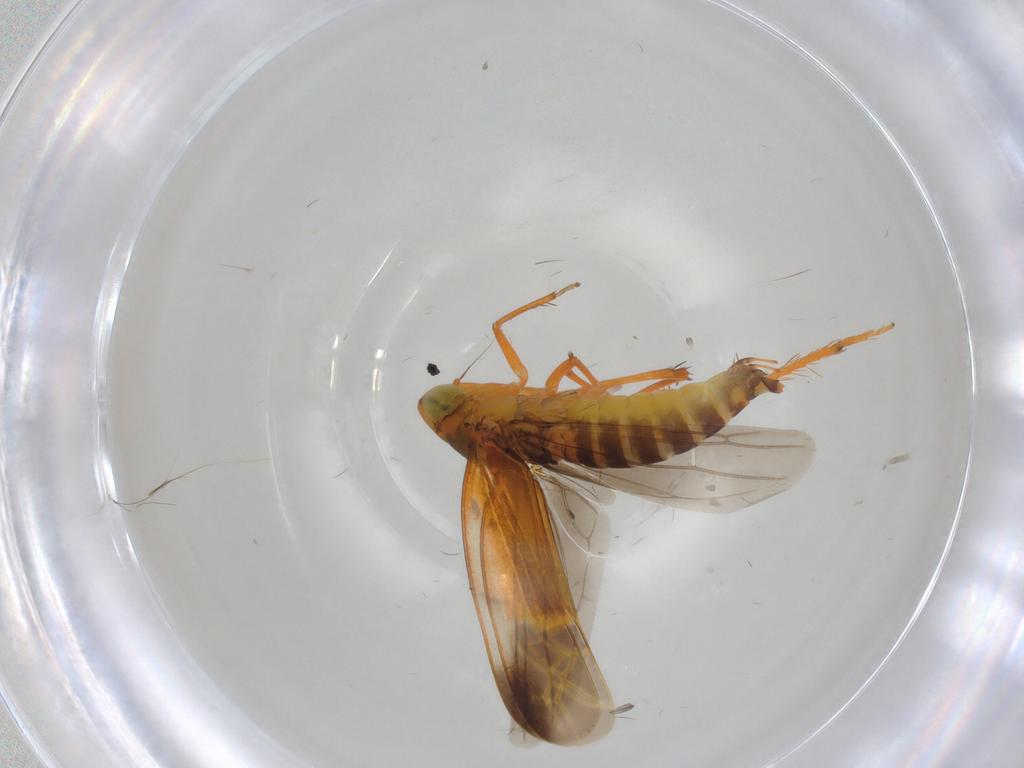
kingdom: Animalia
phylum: Arthropoda
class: Insecta
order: Hemiptera
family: Cicadellidae
